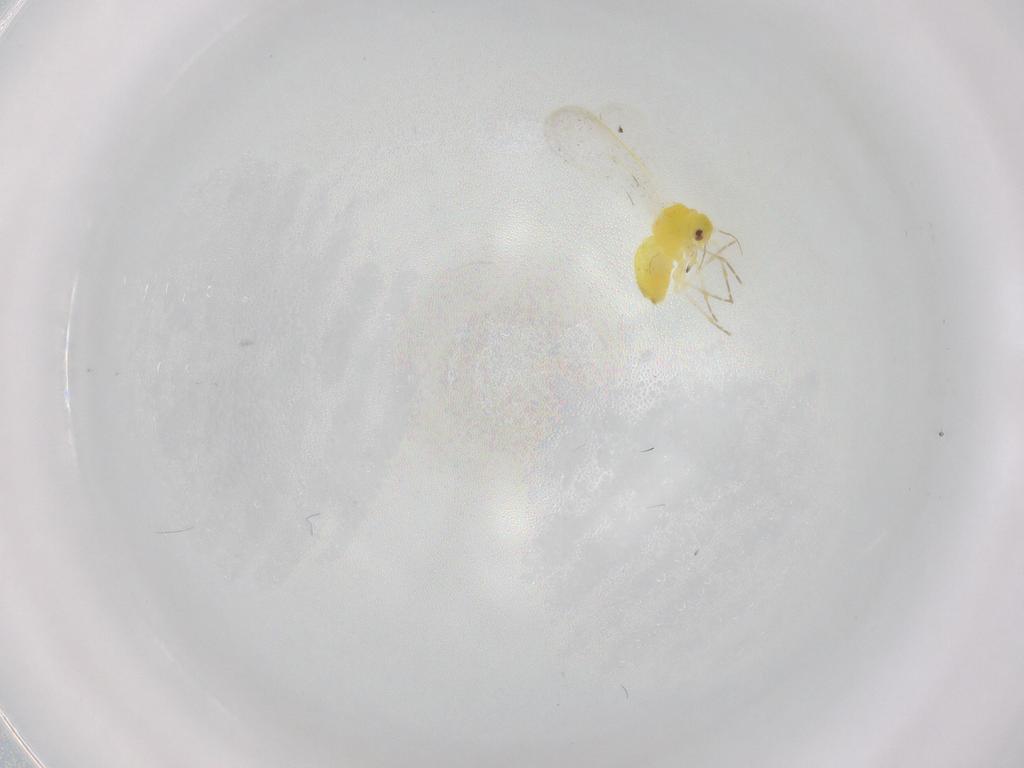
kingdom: Animalia
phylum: Arthropoda
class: Insecta
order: Hemiptera
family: Aleyrodidae
